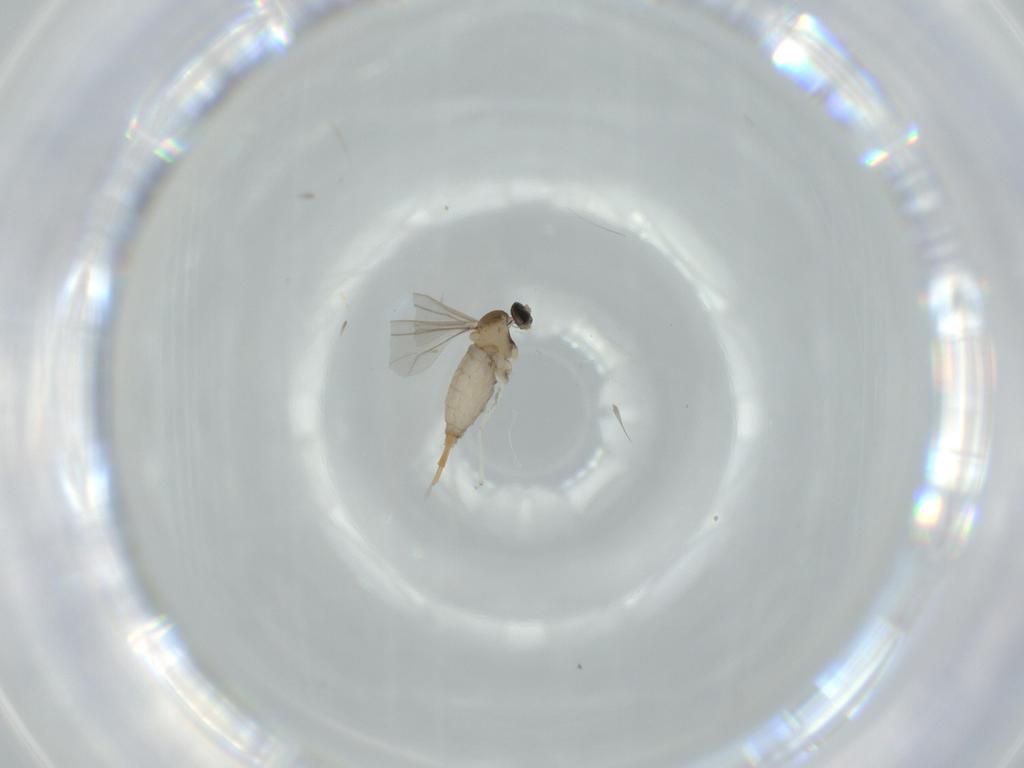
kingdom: Animalia
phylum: Arthropoda
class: Insecta
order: Diptera
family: Cecidomyiidae
